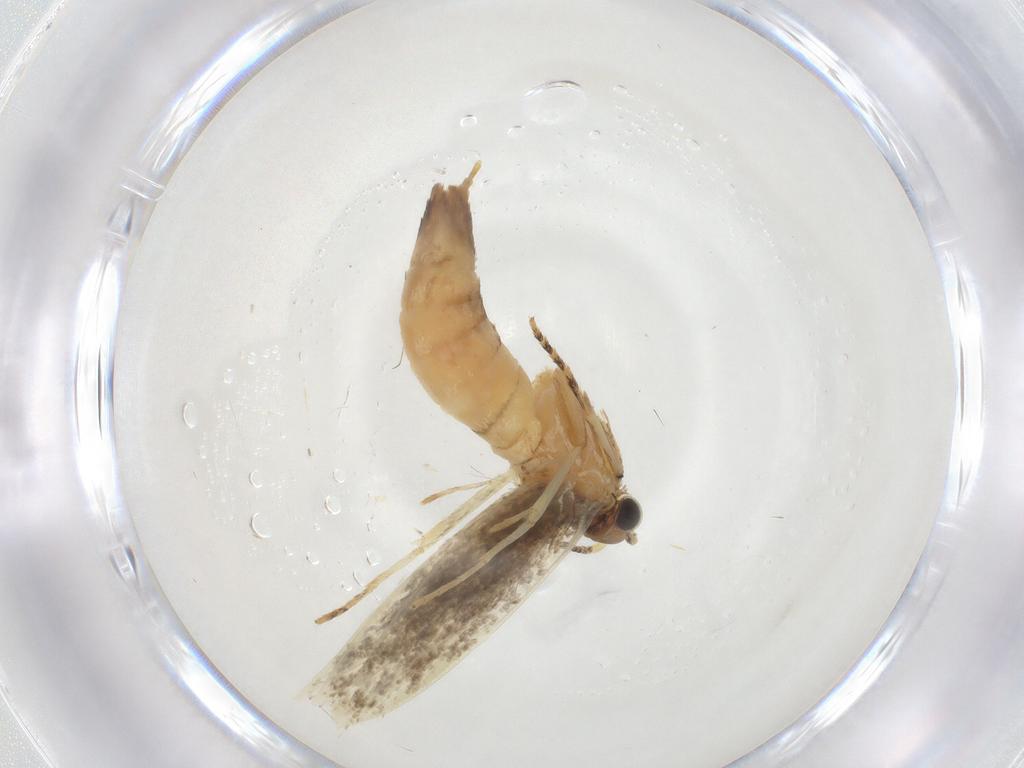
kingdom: Animalia
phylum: Arthropoda
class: Insecta
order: Lepidoptera
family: Tineidae
